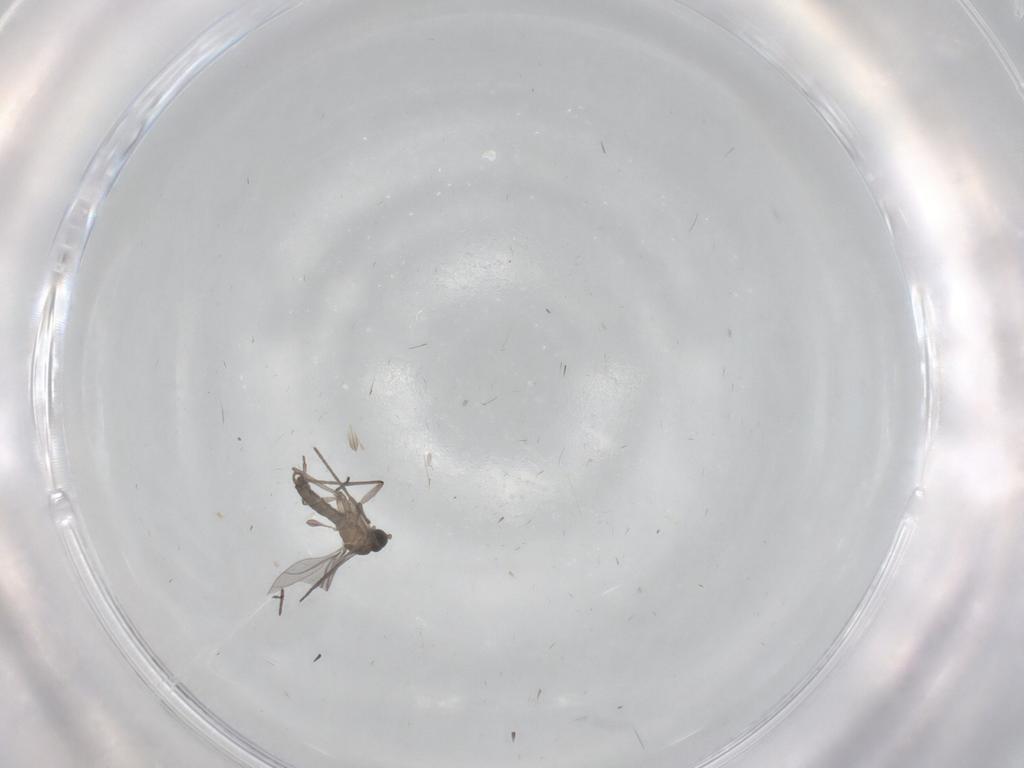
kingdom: Animalia
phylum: Arthropoda
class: Insecta
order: Diptera
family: Cecidomyiidae
